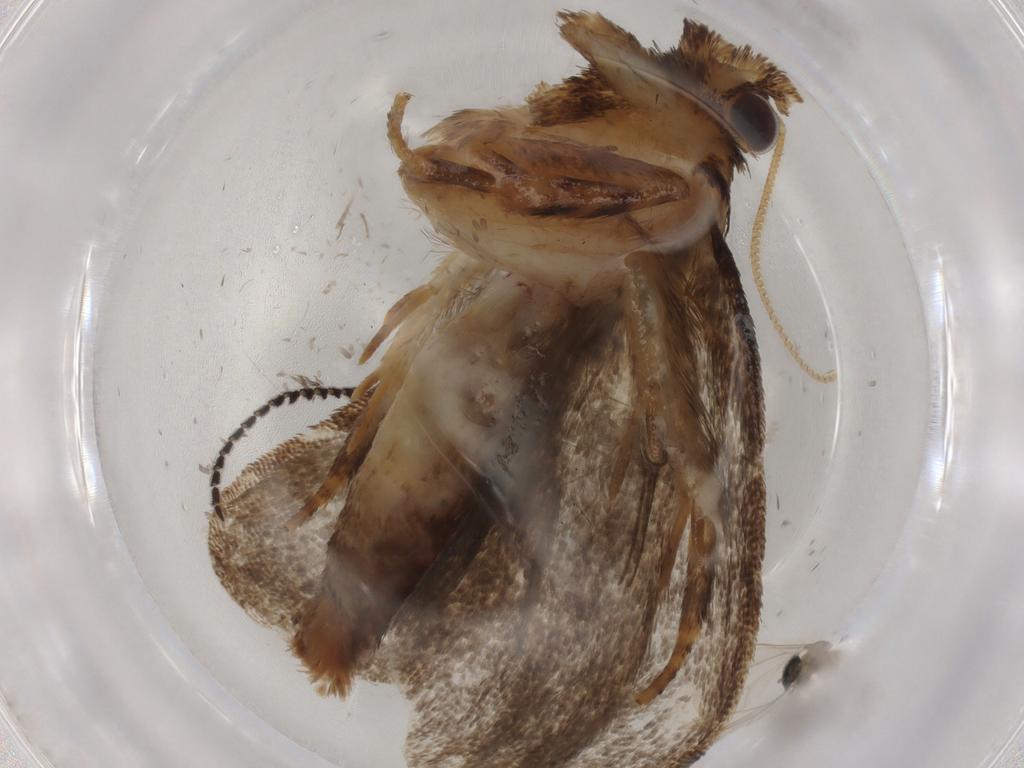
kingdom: Animalia
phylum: Arthropoda
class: Insecta
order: Lepidoptera
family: Tineidae
